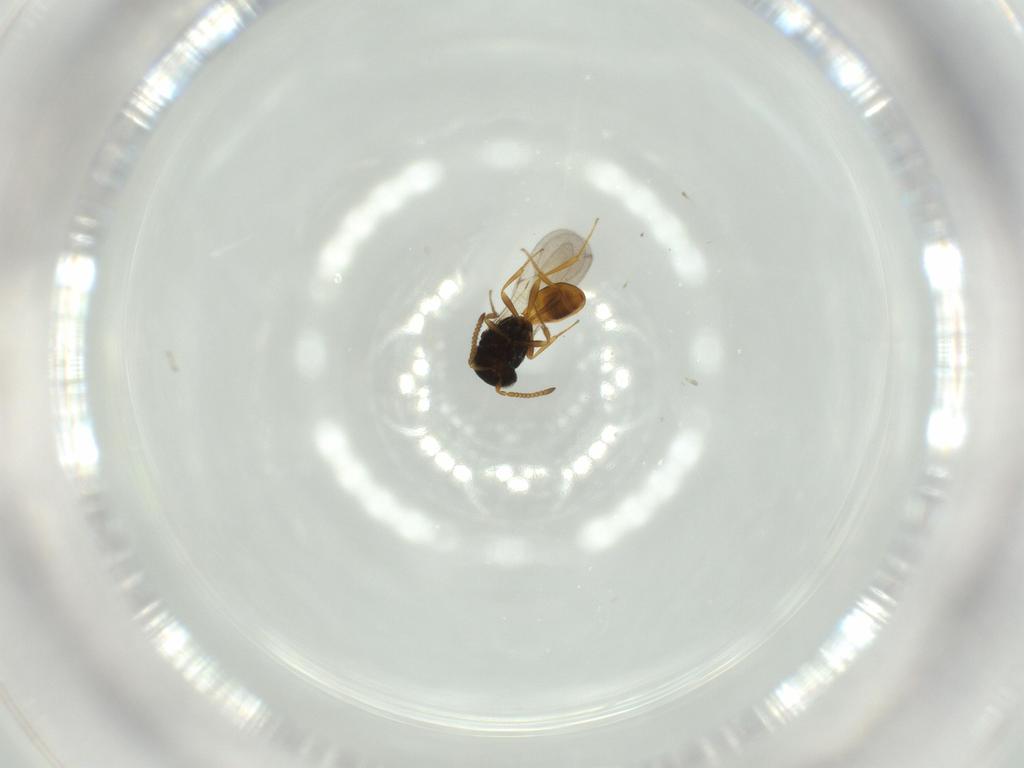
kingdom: Animalia
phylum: Arthropoda
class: Insecta
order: Hymenoptera
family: Scelionidae
